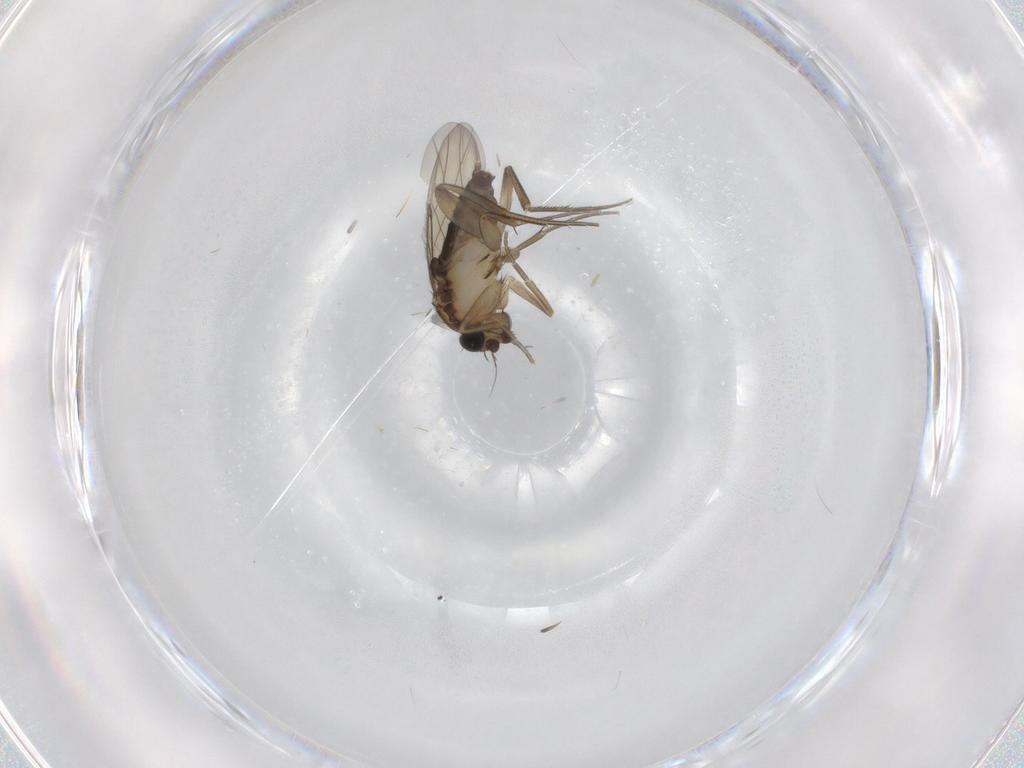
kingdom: Animalia
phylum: Arthropoda
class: Insecta
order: Diptera
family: Phoridae
